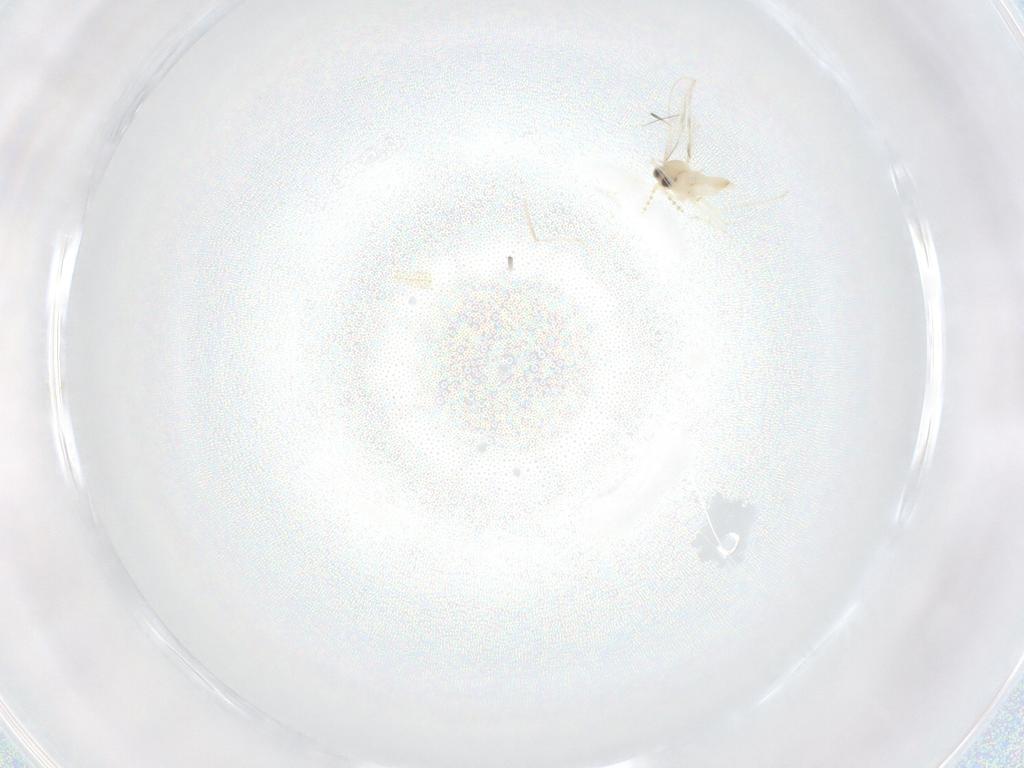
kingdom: Animalia
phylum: Arthropoda
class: Insecta
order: Diptera
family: Cecidomyiidae
